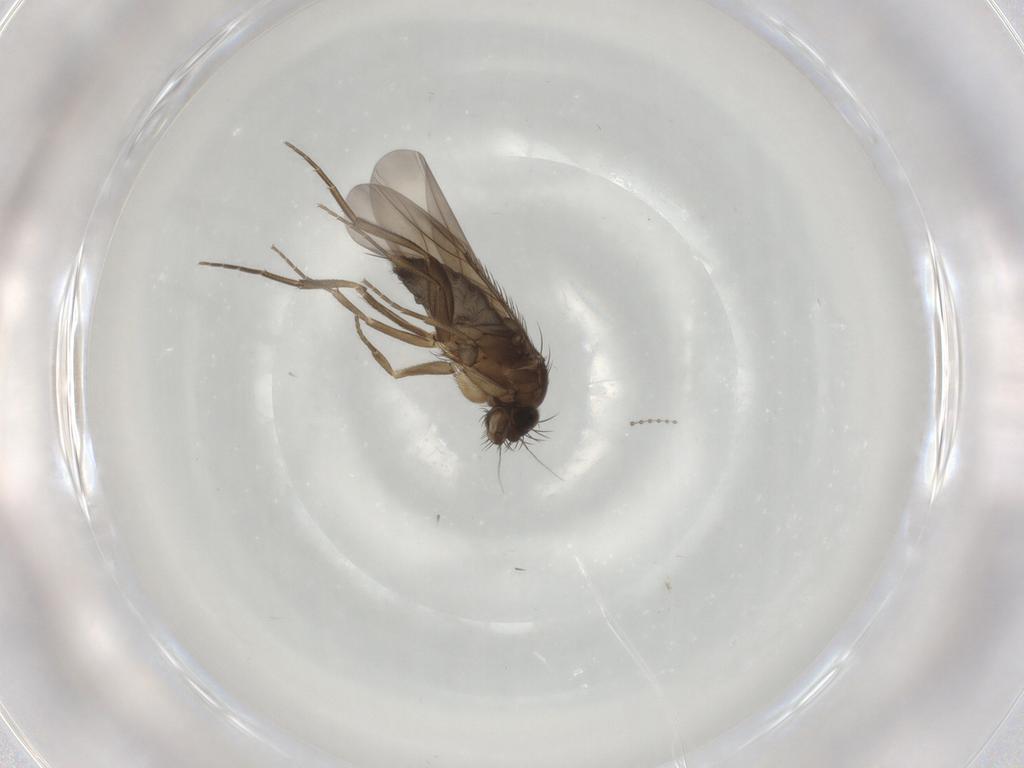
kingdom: Animalia
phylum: Arthropoda
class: Insecta
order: Diptera
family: Phoridae
